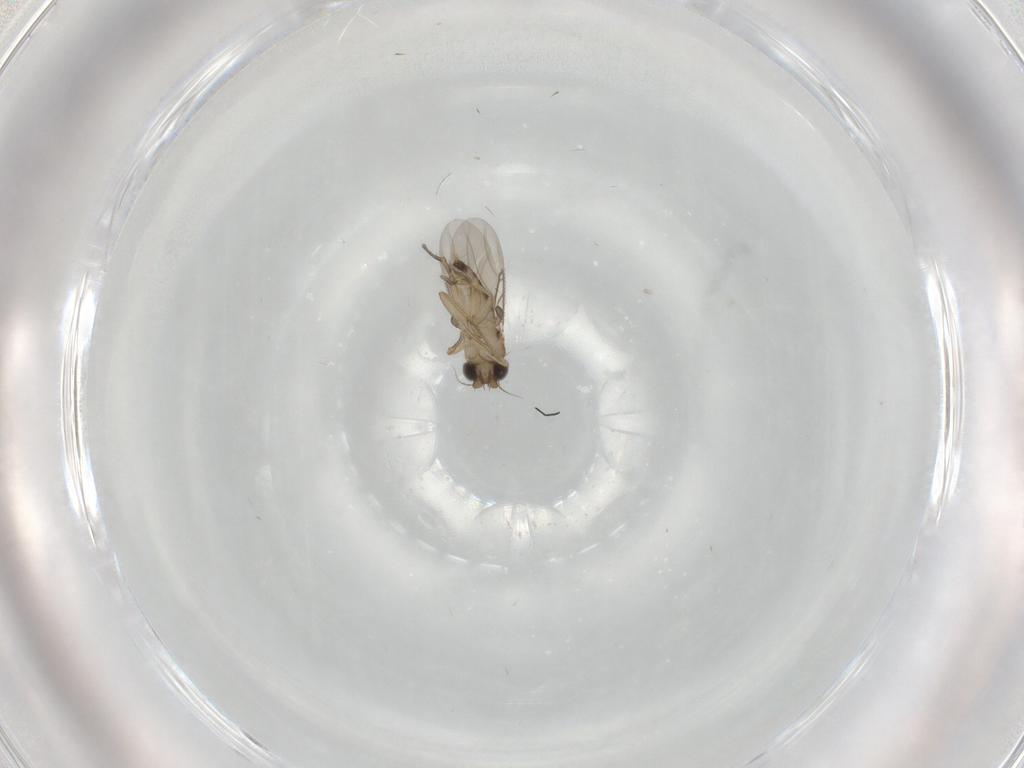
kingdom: Animalia
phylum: Arthropoda
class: Insecta
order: Diptera
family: Phoridae
